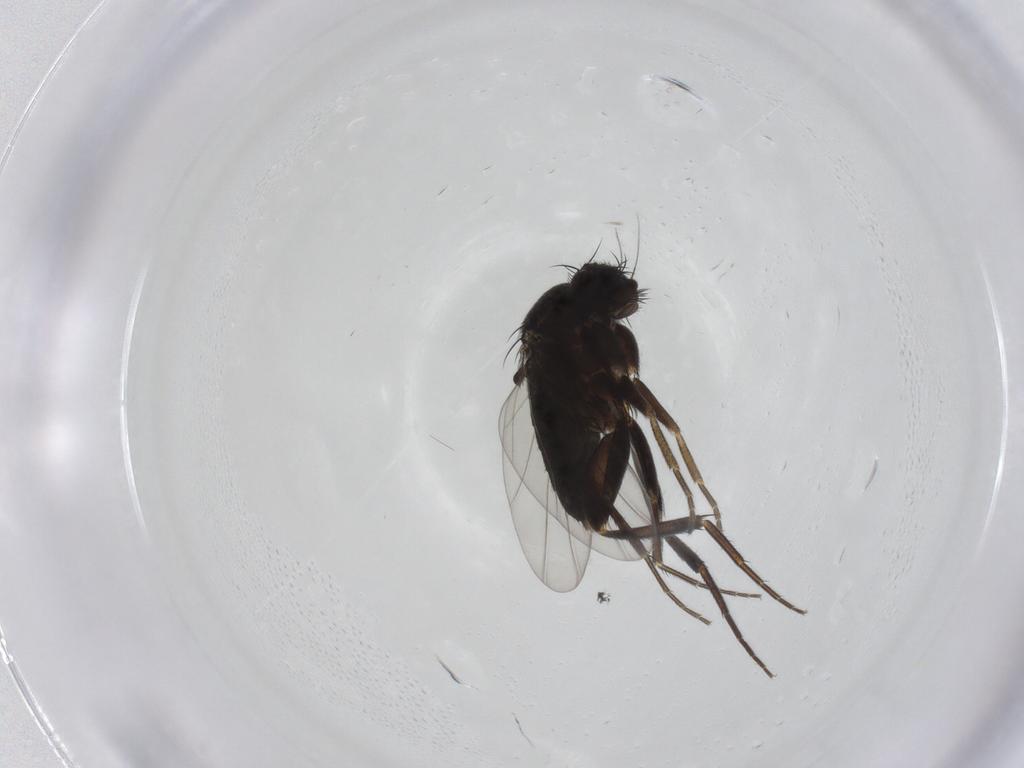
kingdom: Animalia
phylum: Arthropoda
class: Insecta
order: Diptera
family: Phoridae
